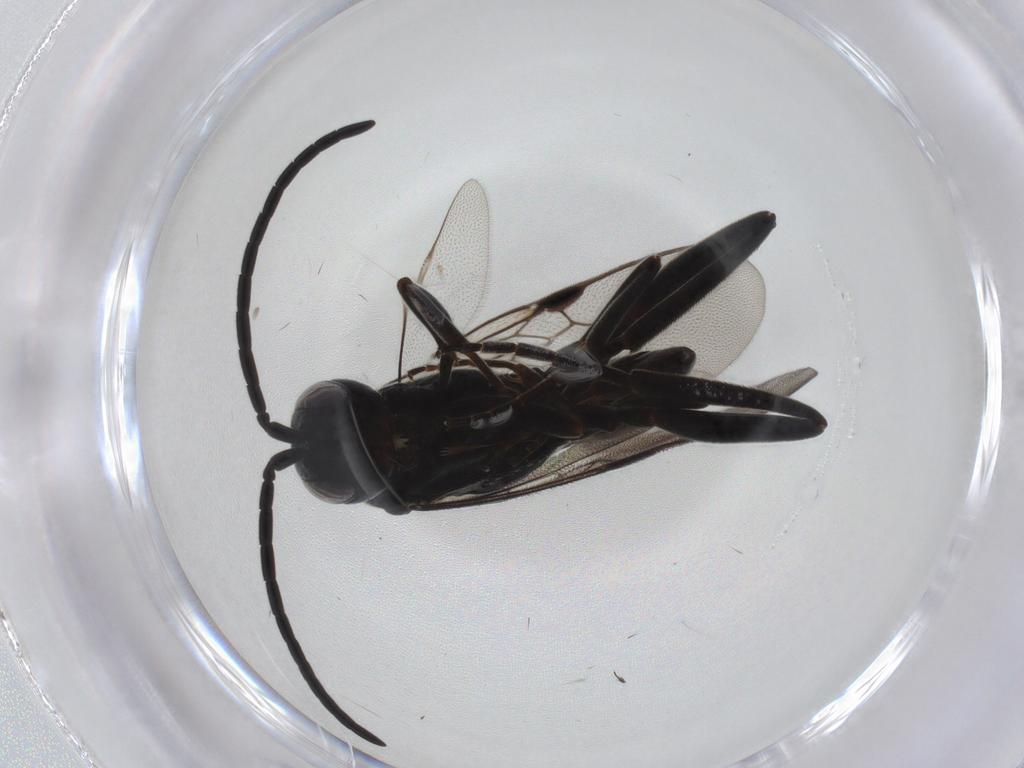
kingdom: Animalia
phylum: Arthropoda
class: Insecta
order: Hymenoptera
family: Evaniidae
